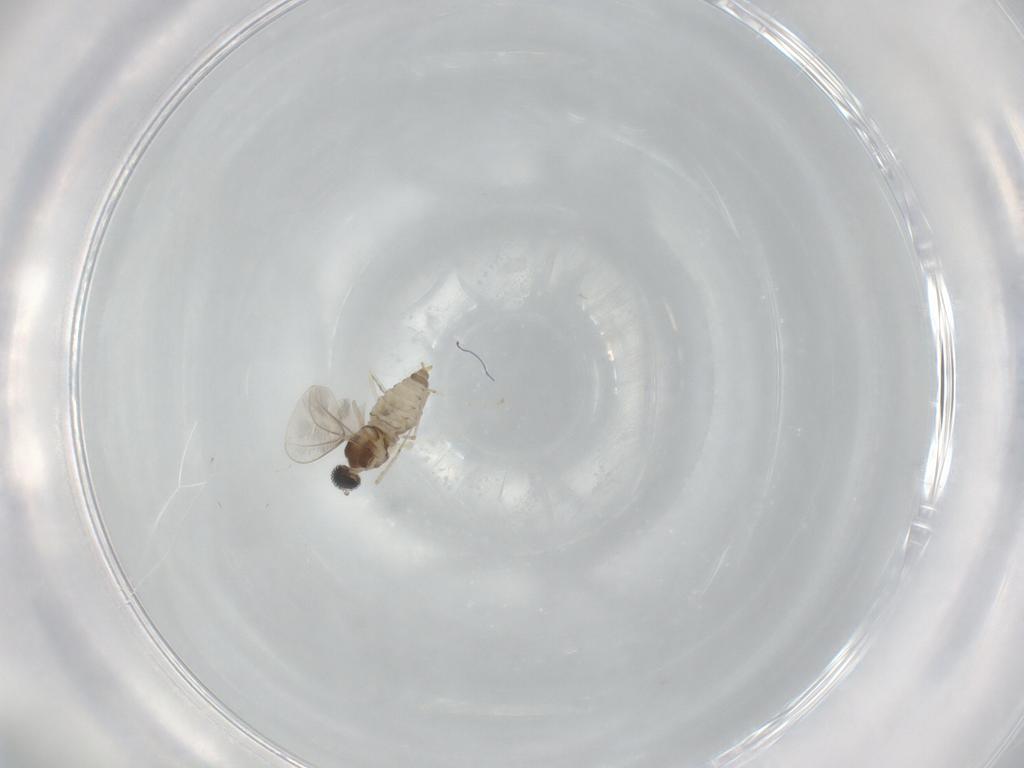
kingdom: Animalia
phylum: Arthropoda
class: Insecta
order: Diptera
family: Cecidomyiidae
